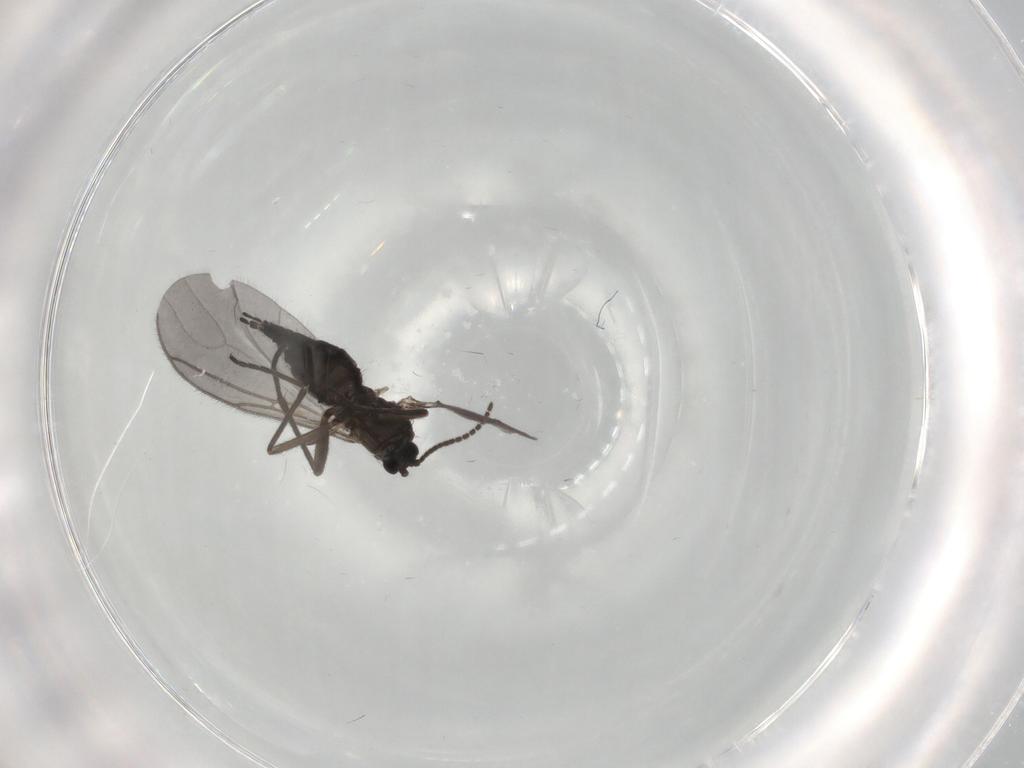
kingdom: Animalia
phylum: Arthropoda
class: Insecta
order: Diptera
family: Sciaridae
